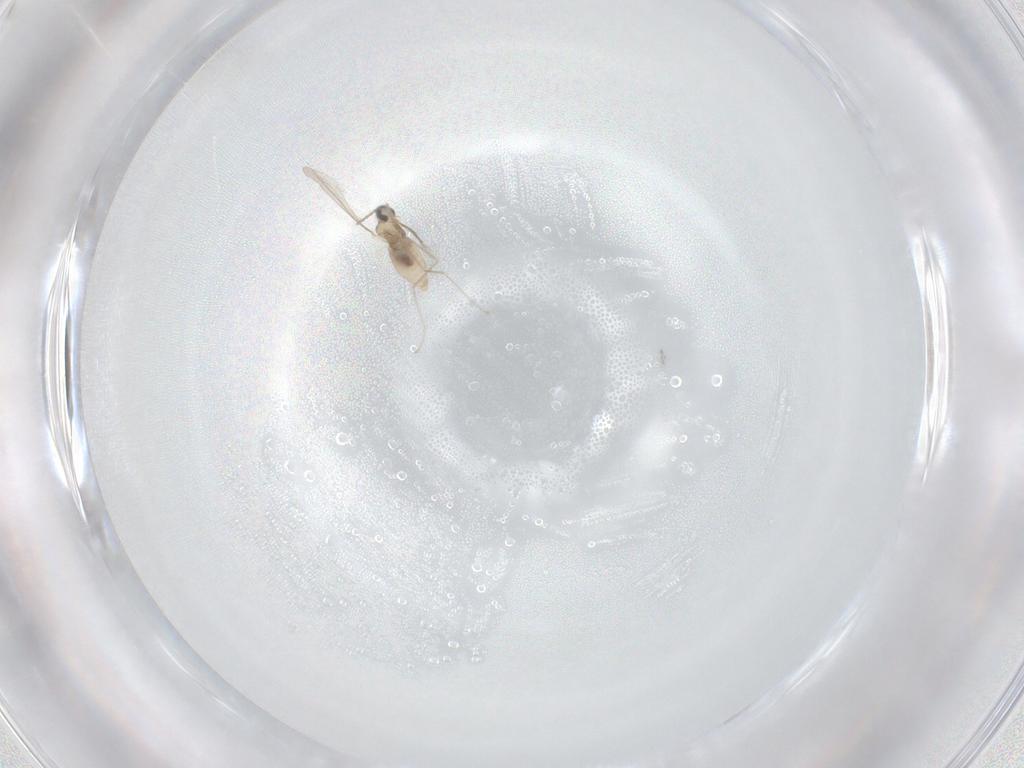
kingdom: Animalia
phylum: Arthropoda
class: Insecta
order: Diptera
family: Cecidomyiidae
